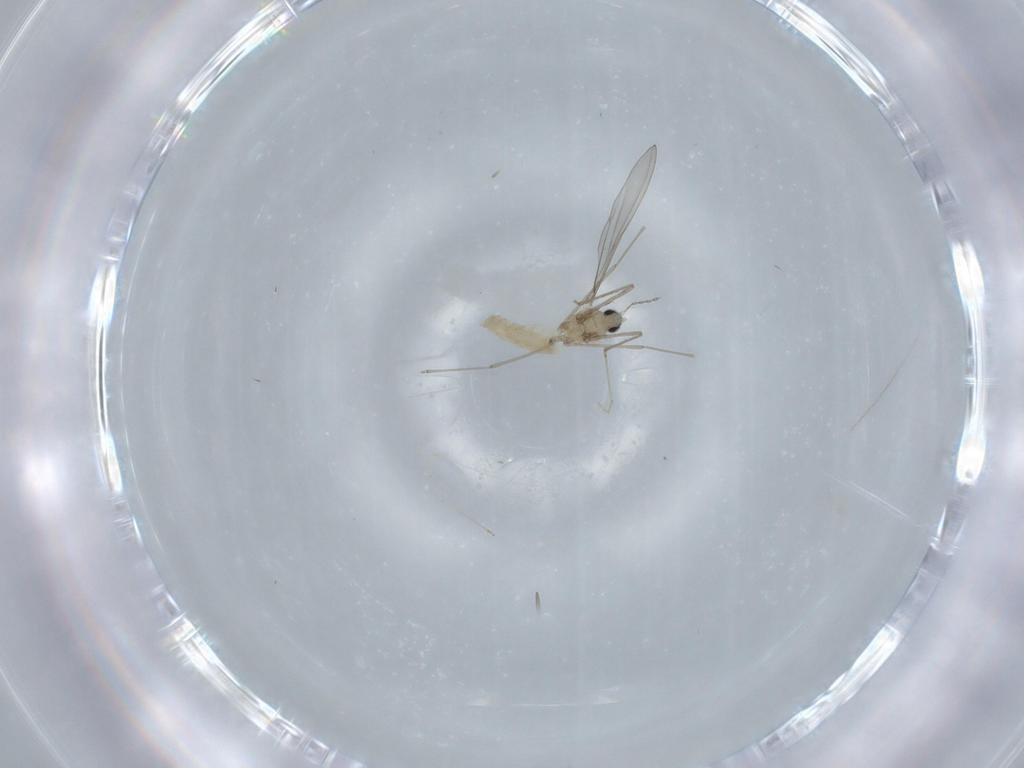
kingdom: Animalia
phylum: Arthropoda
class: Insecta
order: Diptera
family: Cecidomyiidae
